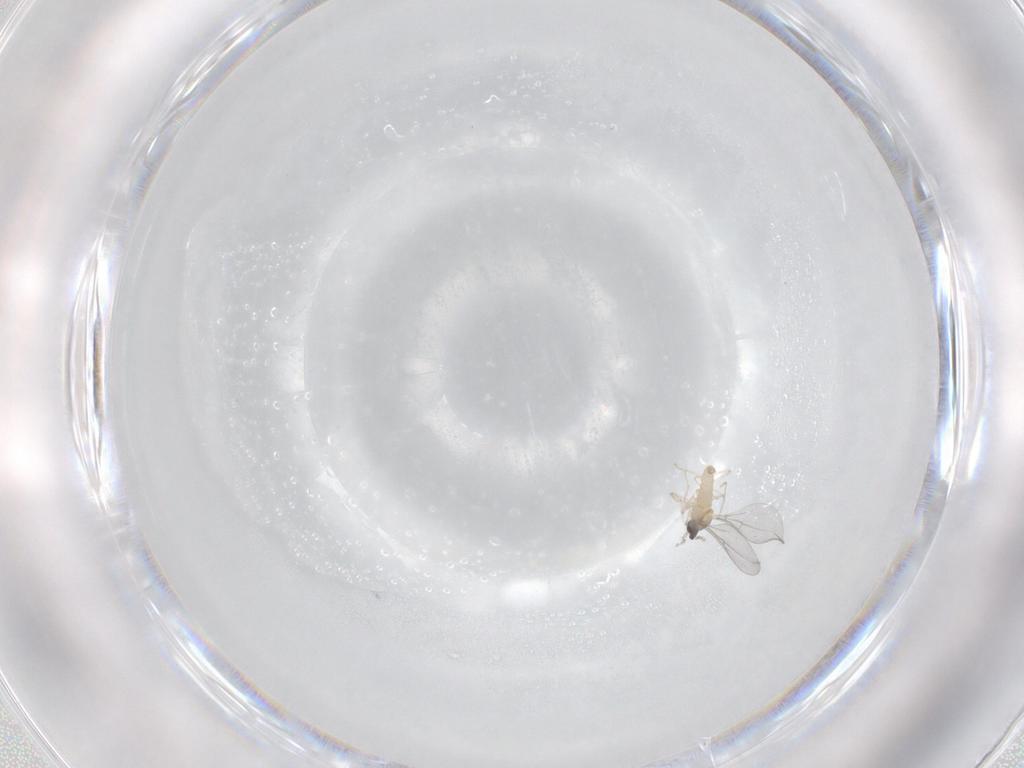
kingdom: Animalia
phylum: Arthropoda
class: Insecta
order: Diptera
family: Cecidomyiidae
